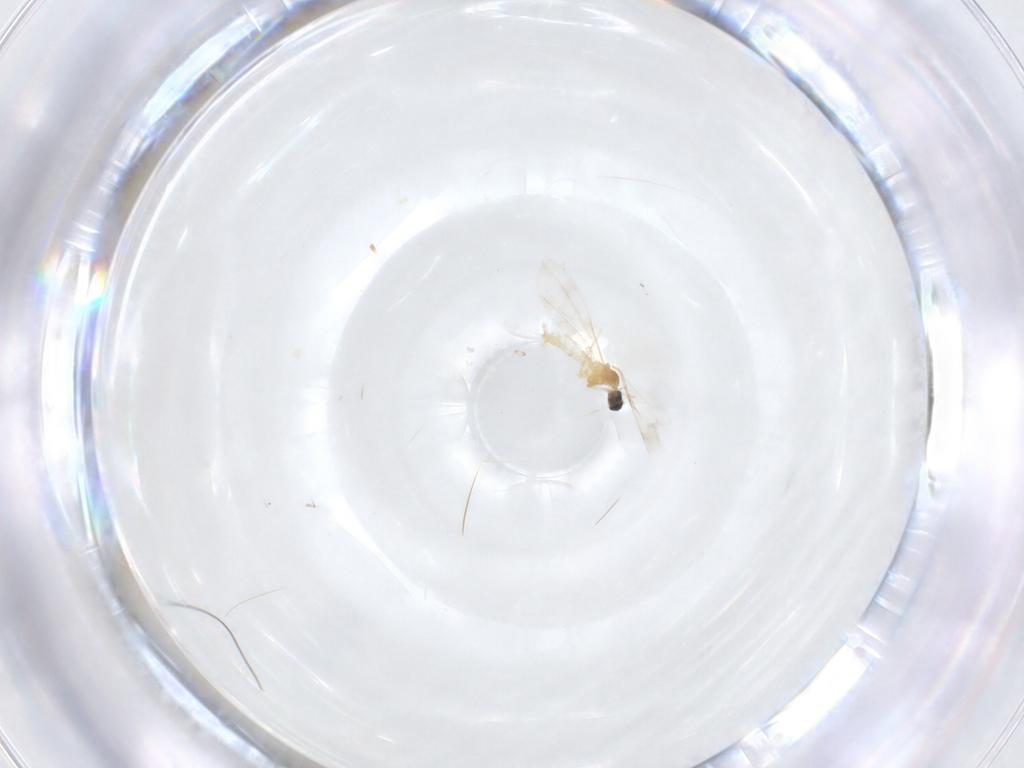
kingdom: Animalia
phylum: Arthropoda
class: Insecta
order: Diptera
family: Cecidomyiidae
